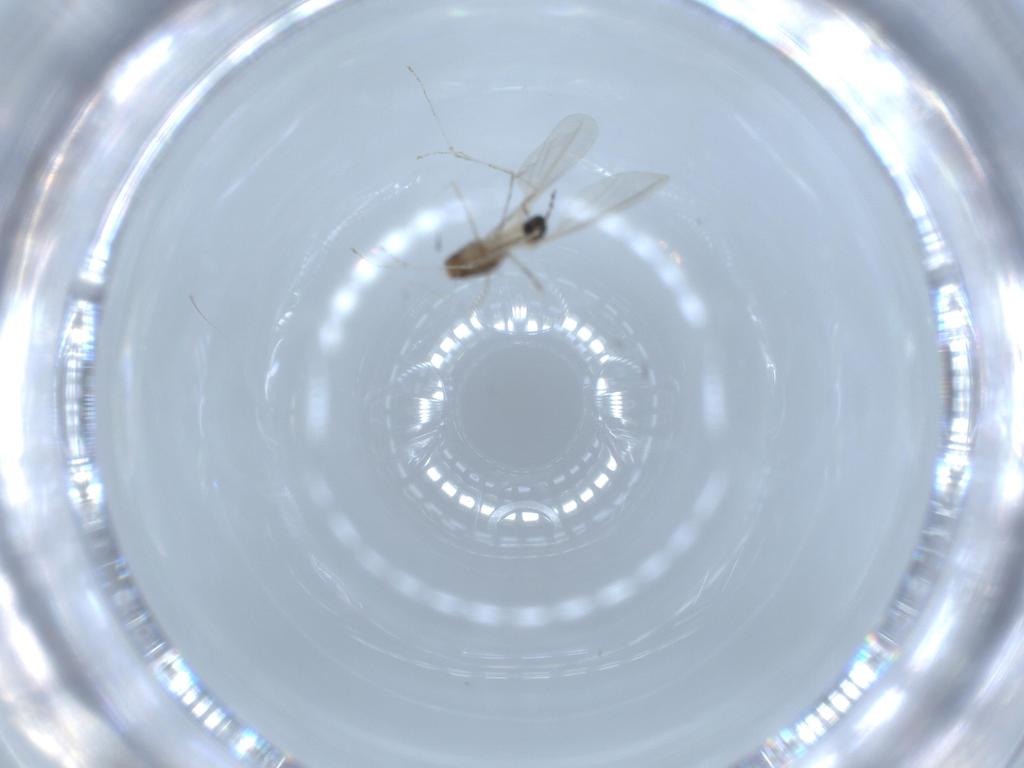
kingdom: Animalia
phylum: Arthropoda
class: Insecta
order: Diptera
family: Cecidomyiidae
